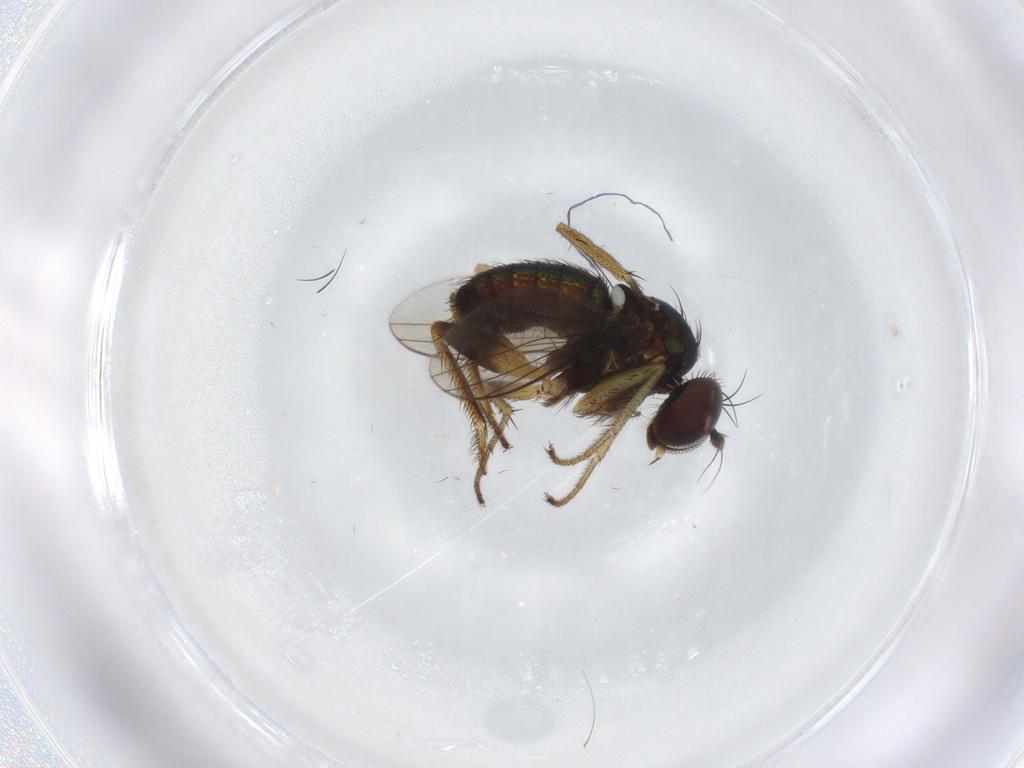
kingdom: Animalia
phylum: Arthropoda
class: Insecta
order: Diptera
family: Dolichopodidae
